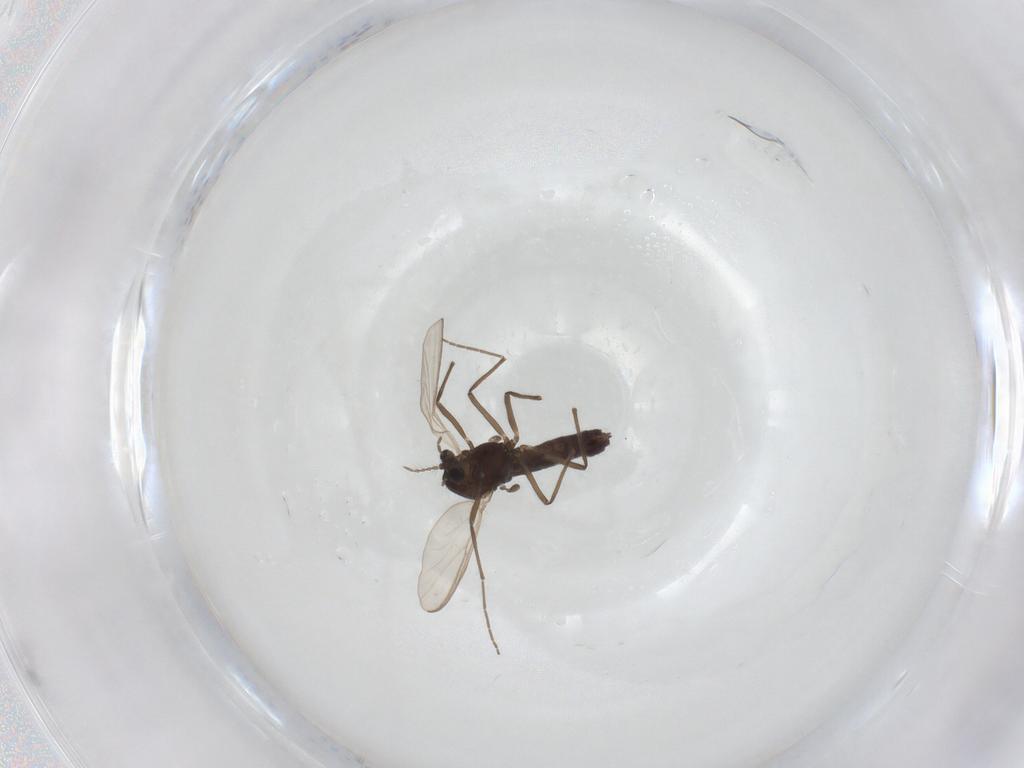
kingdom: Animalia
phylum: Arthropoda
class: Insecta
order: Diptera
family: Chironomidae
